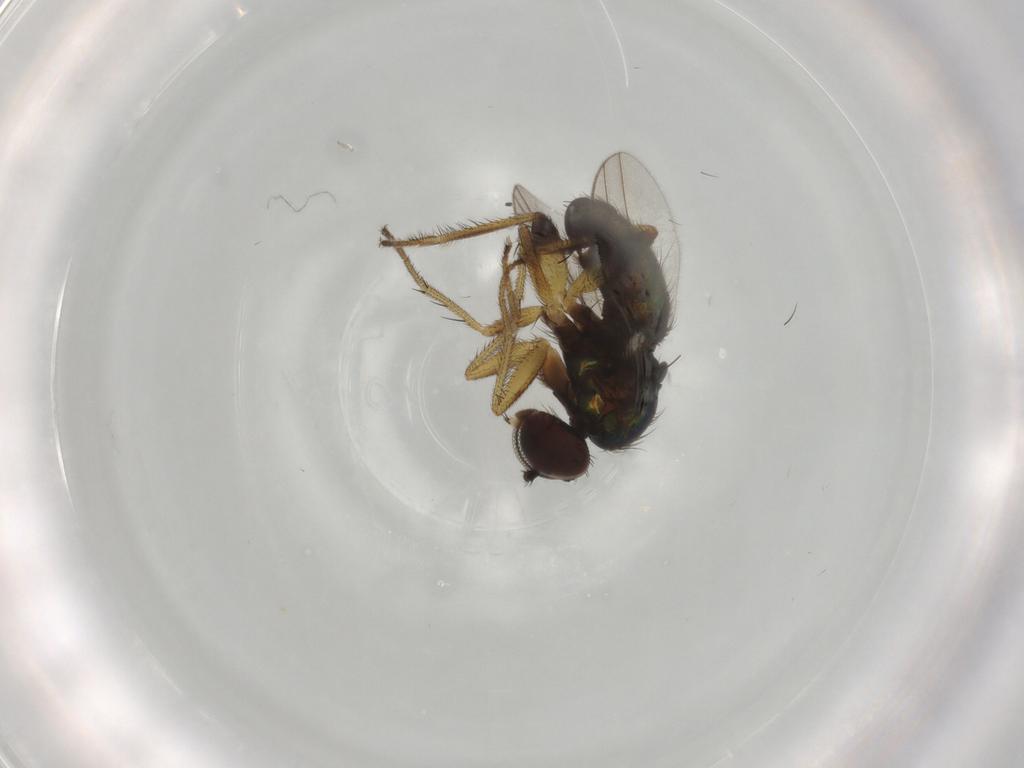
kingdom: Animalia
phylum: Arthropoda
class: Insecta
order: Diptera
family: Dolichopodidae
